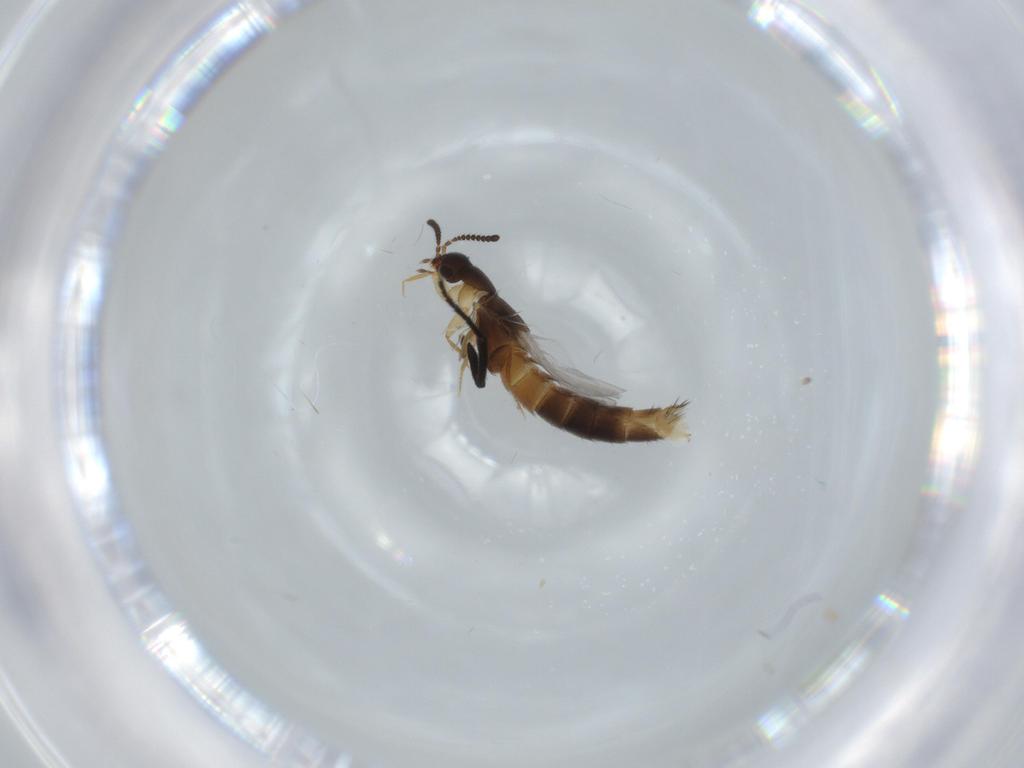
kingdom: Animalia
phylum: Arthropoda
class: Insecta
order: Coleoptera
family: Staphylinidae
